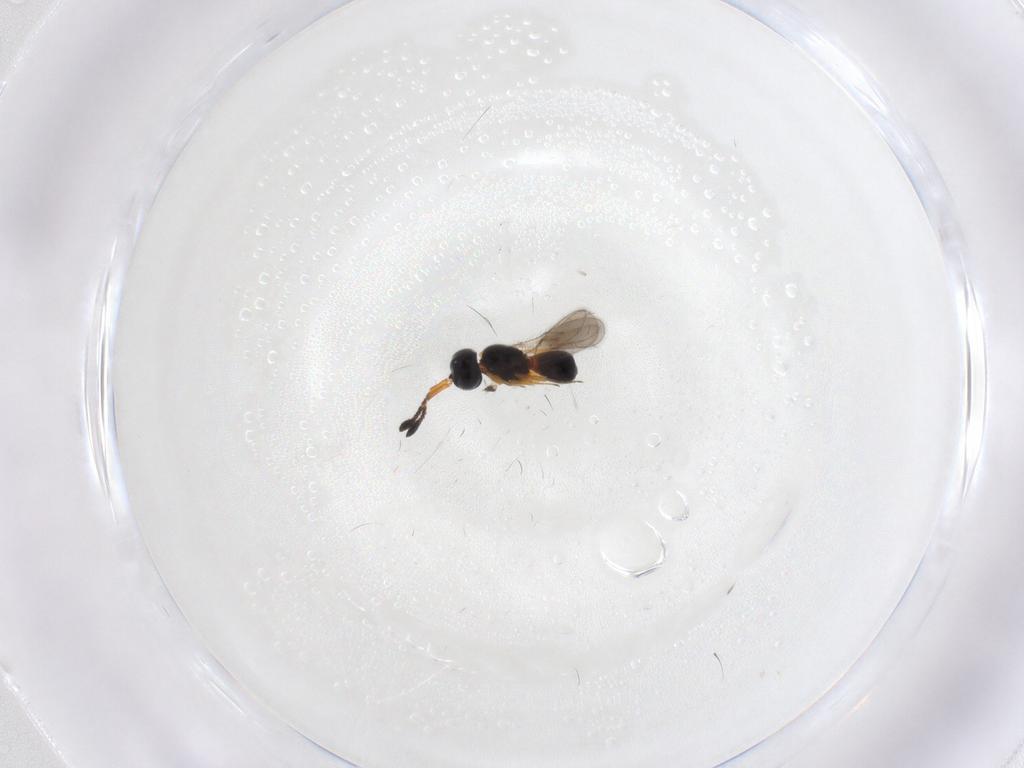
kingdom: Animalia
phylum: Arthropoda
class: Insecta
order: Hymenoptera
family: Scelionidae
